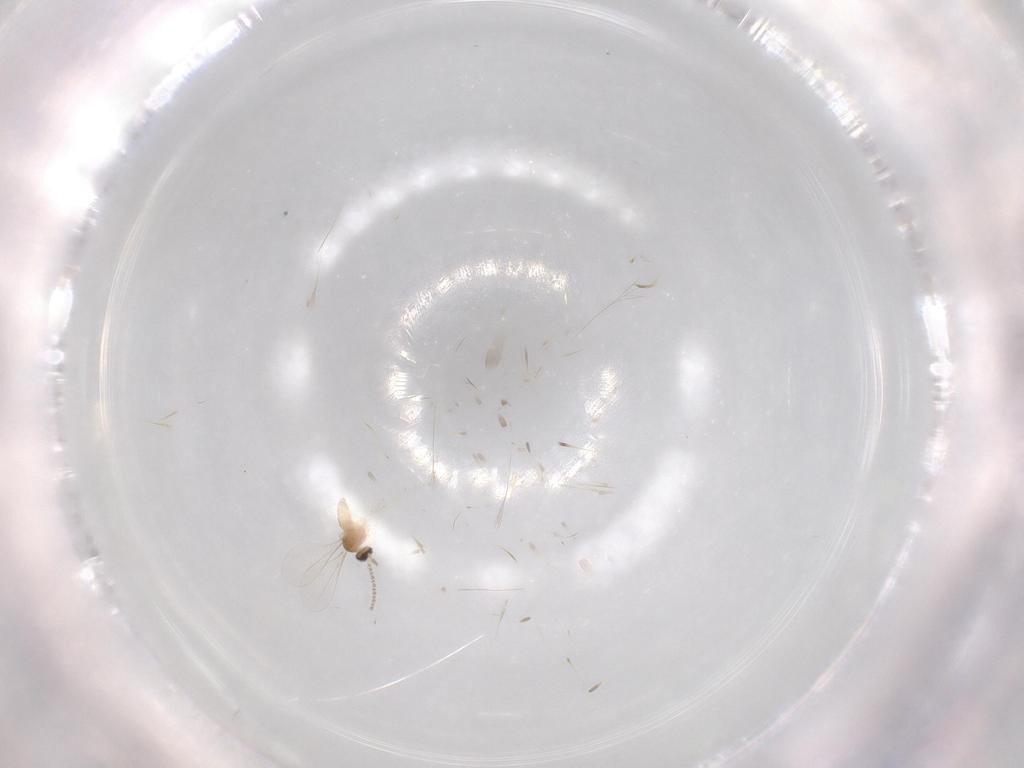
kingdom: Animalia
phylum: Arthropoda
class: Insecta
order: Diptera
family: Cecidomyiidae
